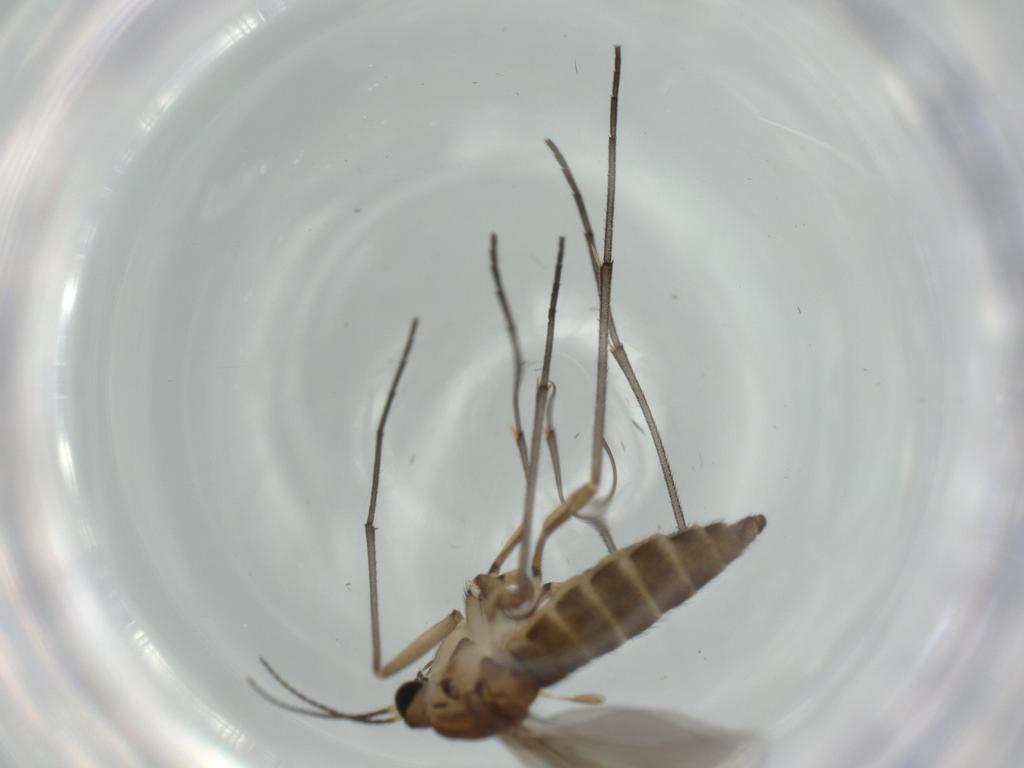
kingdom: Animalia
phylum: Arthropoda
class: Insecta
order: Diptera
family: Sciaridae
